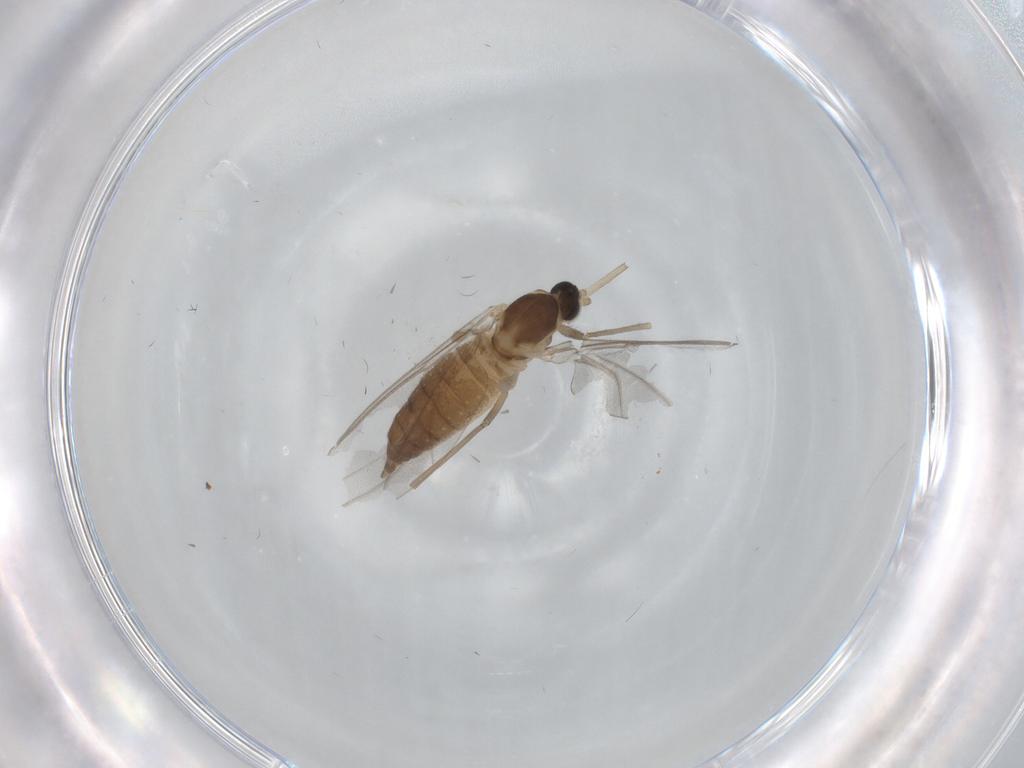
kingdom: Animalia
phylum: Arthropoda
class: Insecta
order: Diptera
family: Cecidomyiidae
